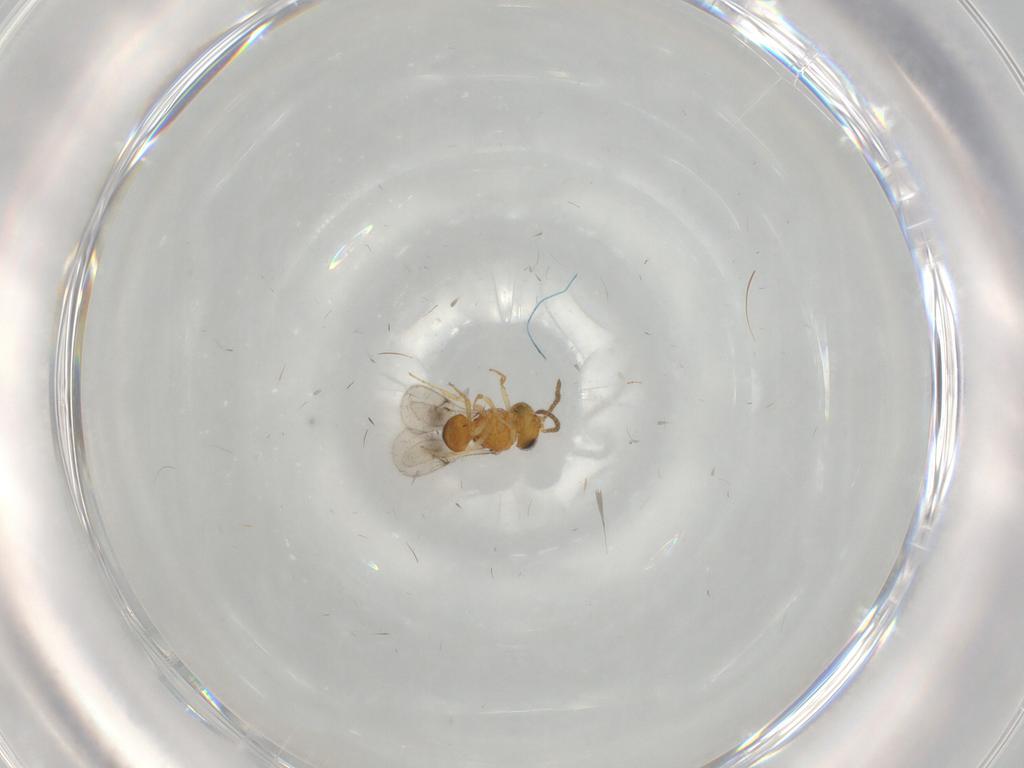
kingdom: Animalia
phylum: Arthropoda
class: Insecta
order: Hymenoptera
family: Scelionidae
